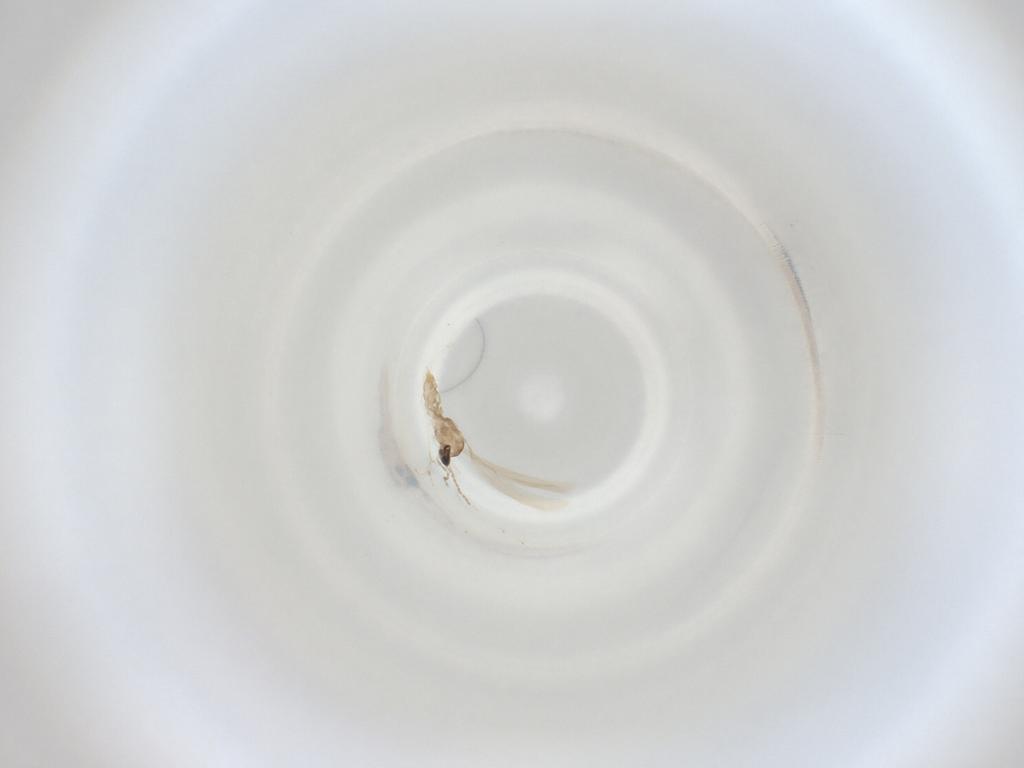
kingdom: Animalia
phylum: Arthropoda
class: Insecta
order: Diptera
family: Cecidomyiidae
